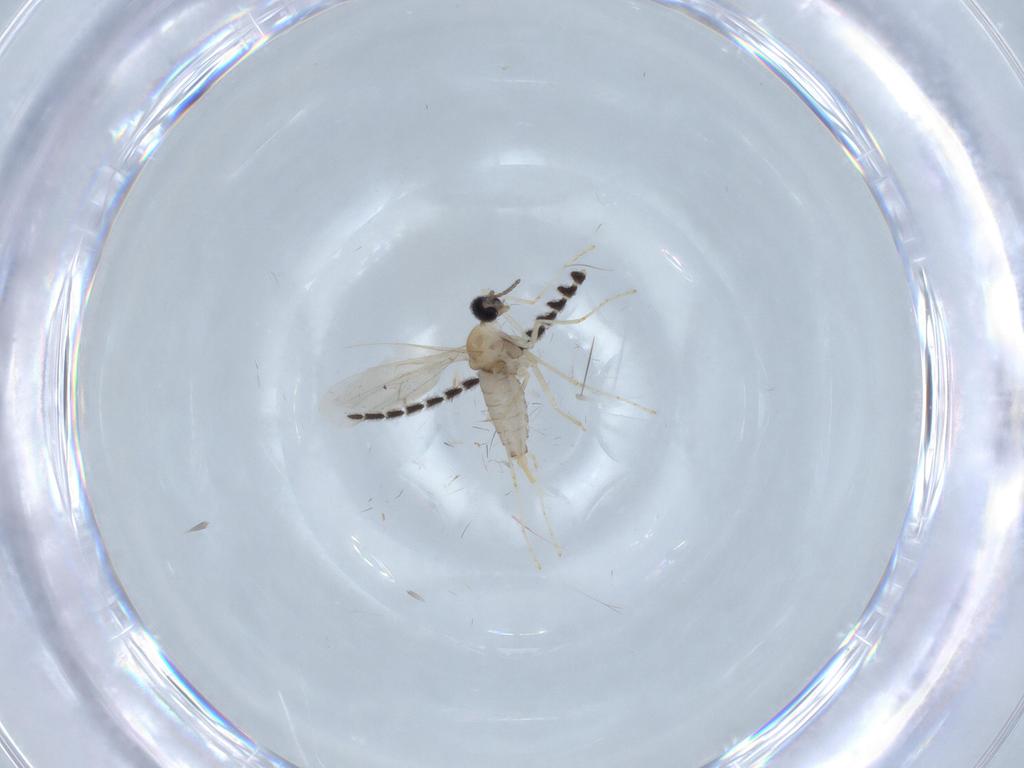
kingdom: Animalia
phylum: Arthropoda
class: Insecta
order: Diptera
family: Cecidomyiidae
